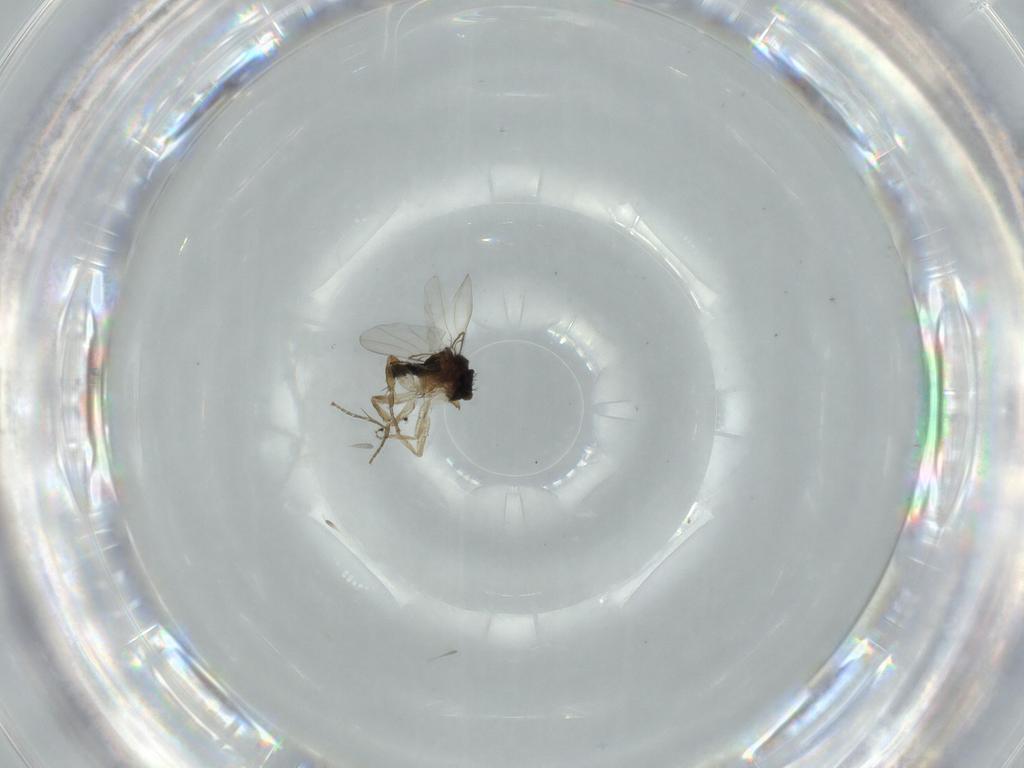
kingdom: Animalia
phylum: Arthropoda
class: Insecta
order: Diptera
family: Phoridae
